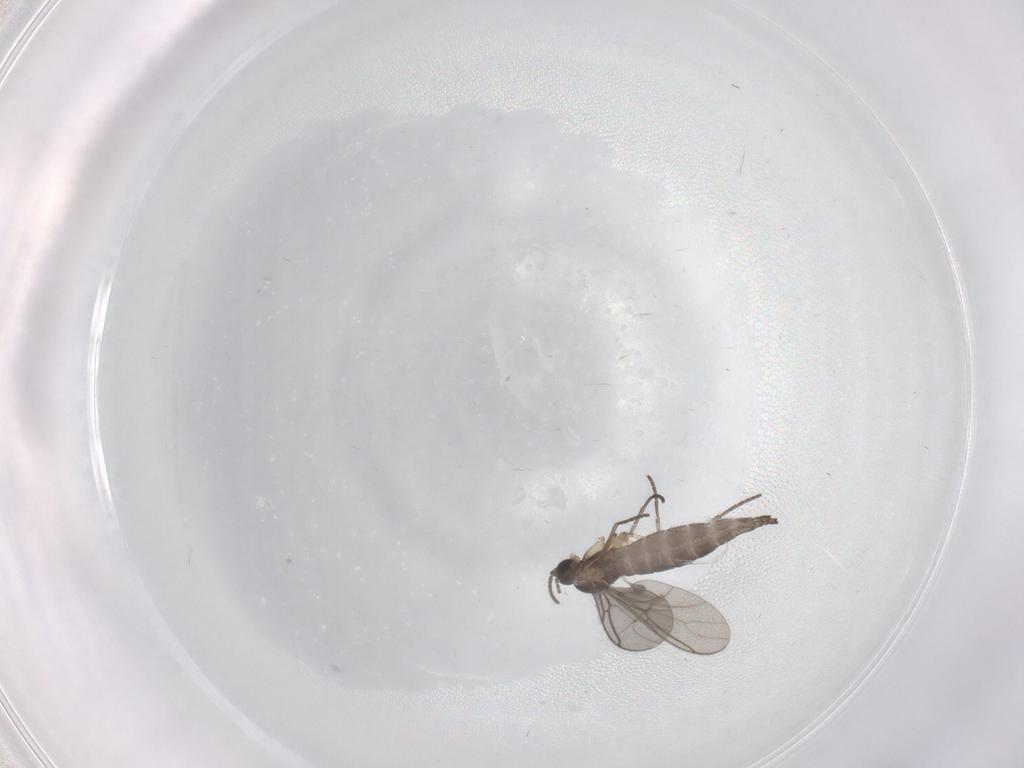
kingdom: Animalia
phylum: Arthropoda
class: Insecta
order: Diptera
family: Sciaridae
